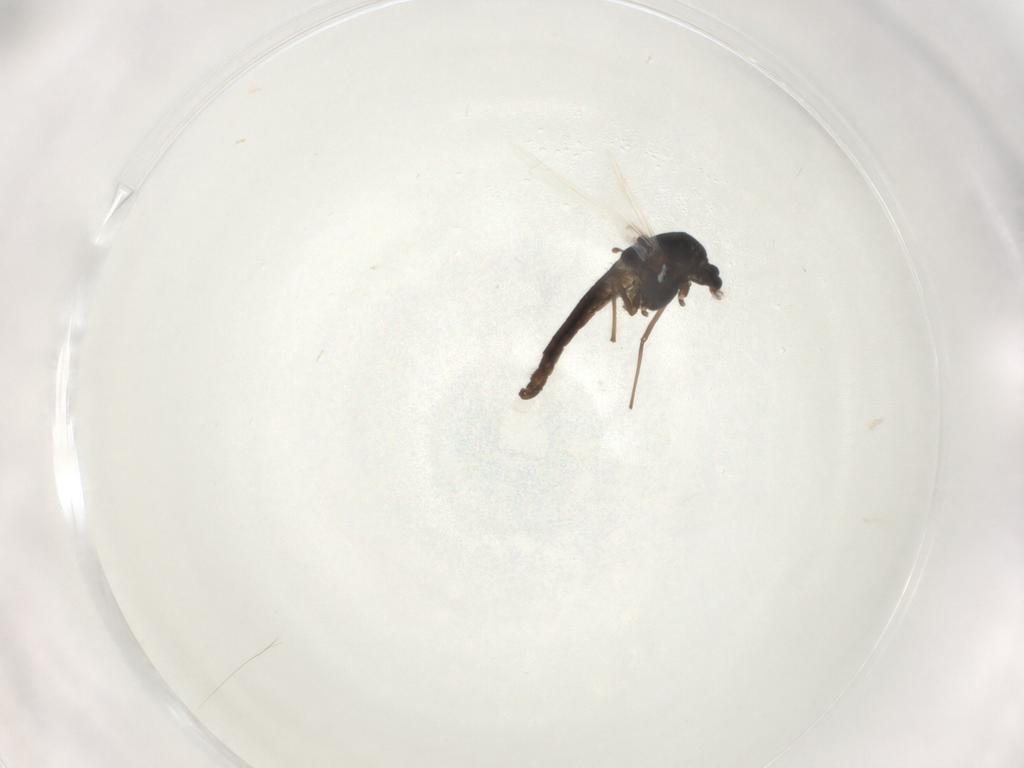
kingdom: Animalia
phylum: Arthropoda
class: Insecta
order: Diptera
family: Chironomidae
